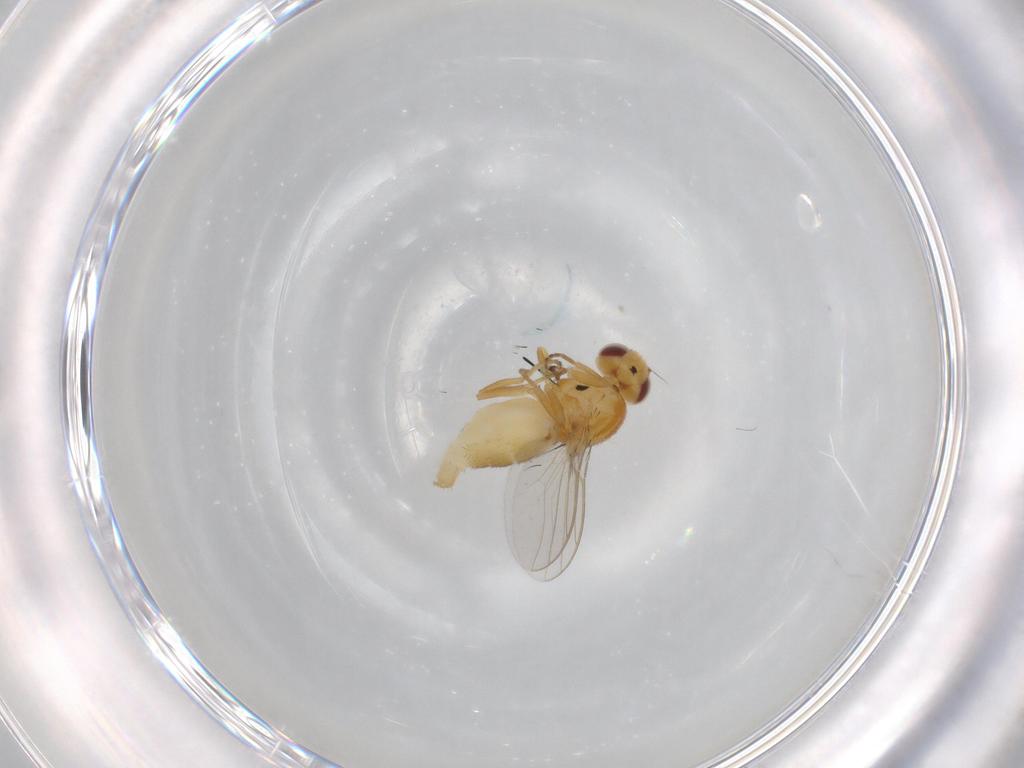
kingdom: Animalia
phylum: Arthropoda
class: Insecta
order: Diptera
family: Chloropidae
